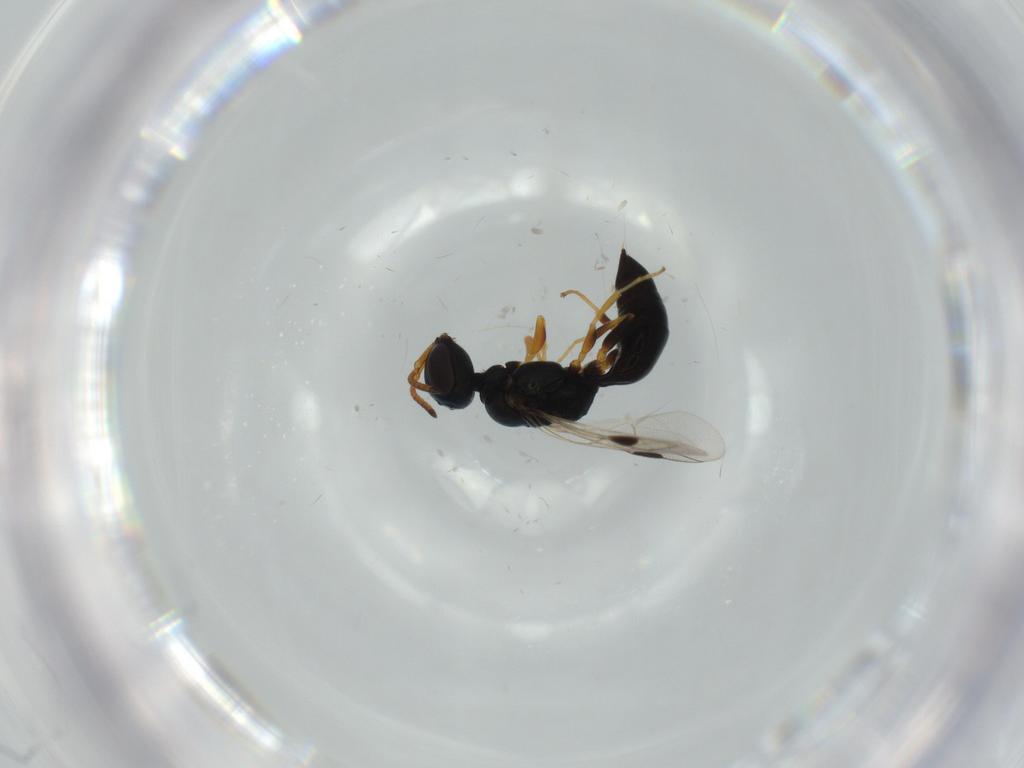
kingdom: Animalia
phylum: Arthropoda
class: Insecta
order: Hymenoptera
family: Pemphredonidae
